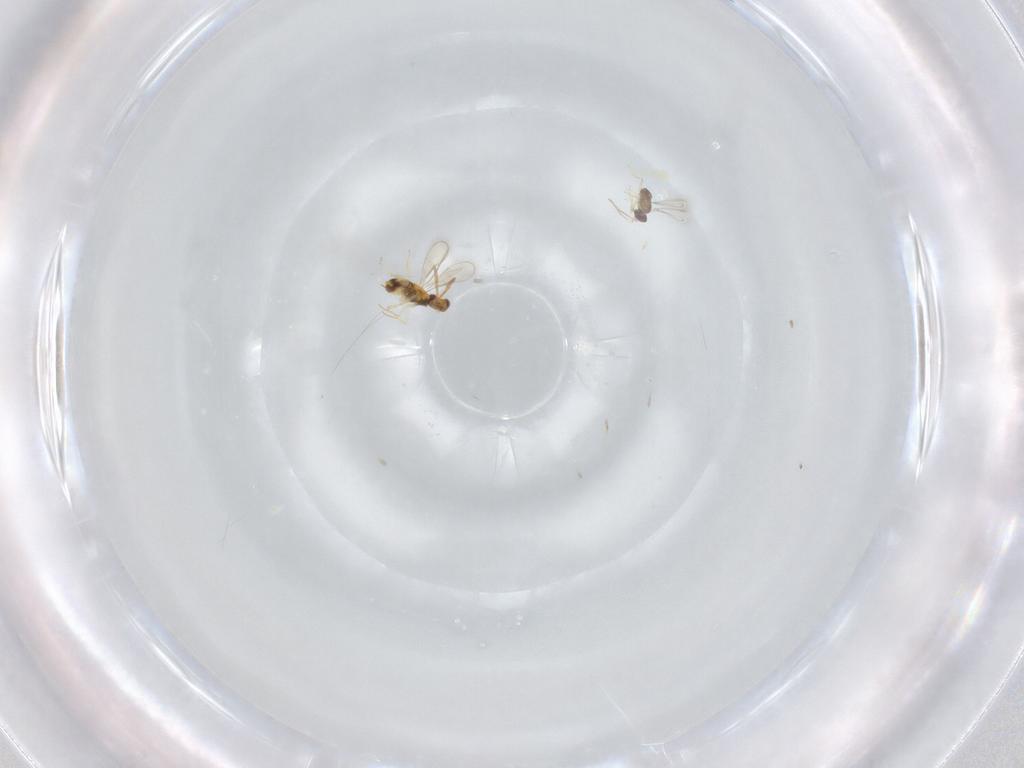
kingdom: Animalia
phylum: Arthropoda
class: Insecta
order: Hymenoptera
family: Aphelinidae
